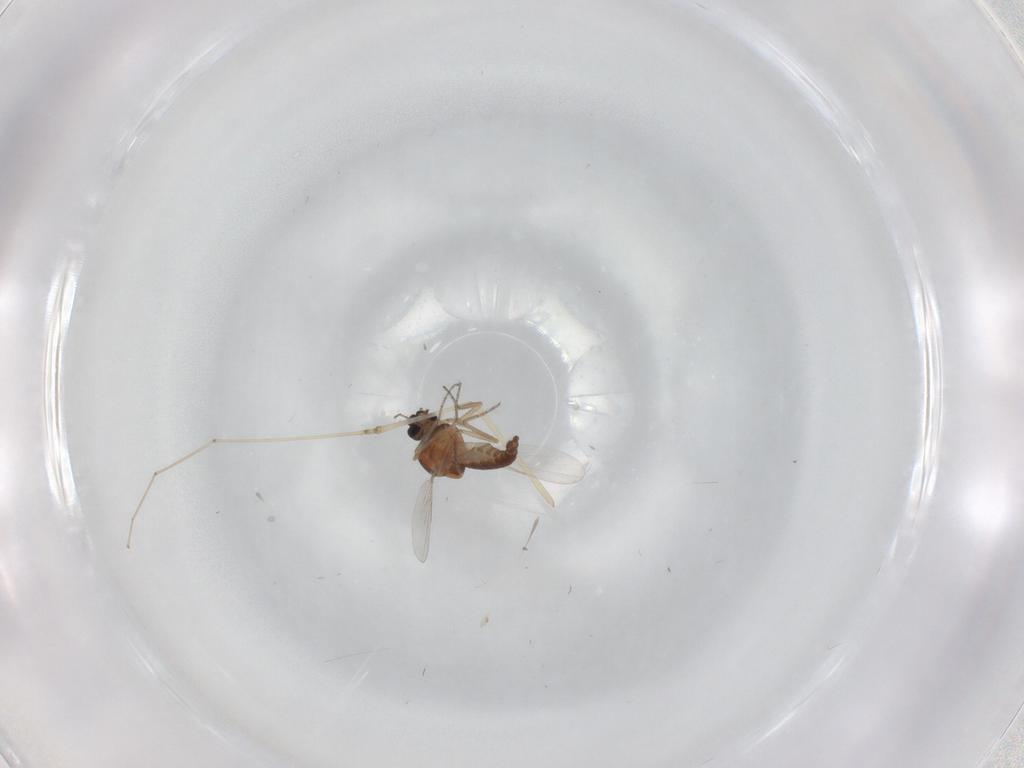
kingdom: Animalia
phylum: Arthropoda
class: Insecta
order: Diptera
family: Ceratopogonidae
